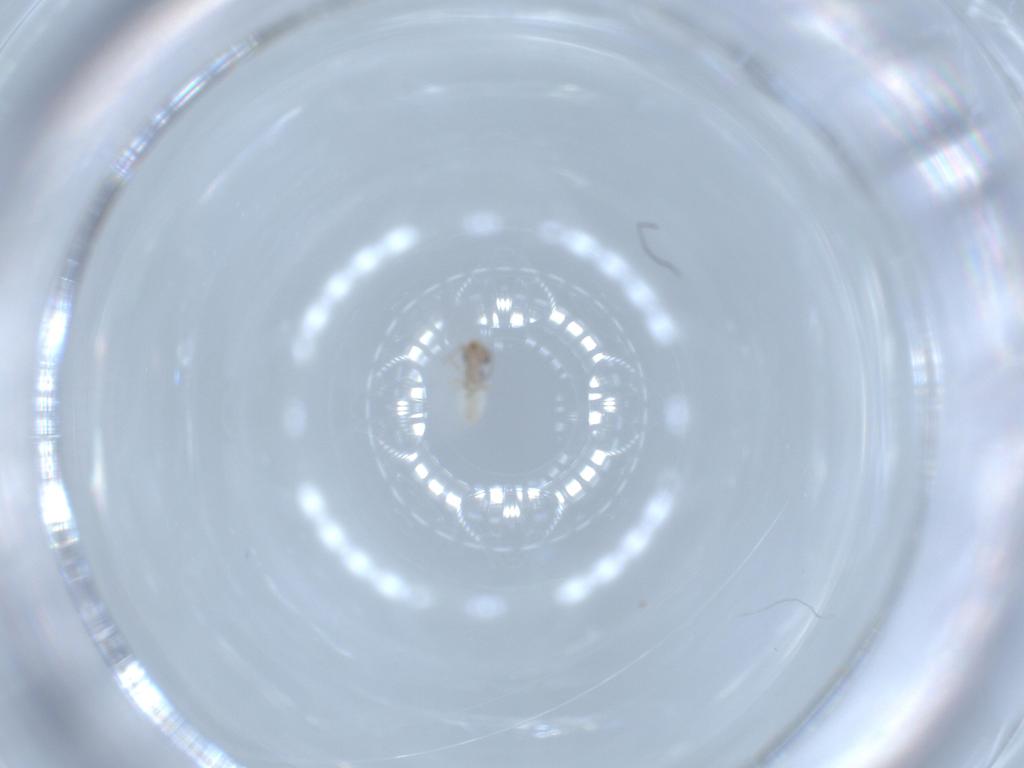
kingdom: Animalia
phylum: Arthropoda
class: Insecta
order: Psocodea
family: Lepidopsocidae
